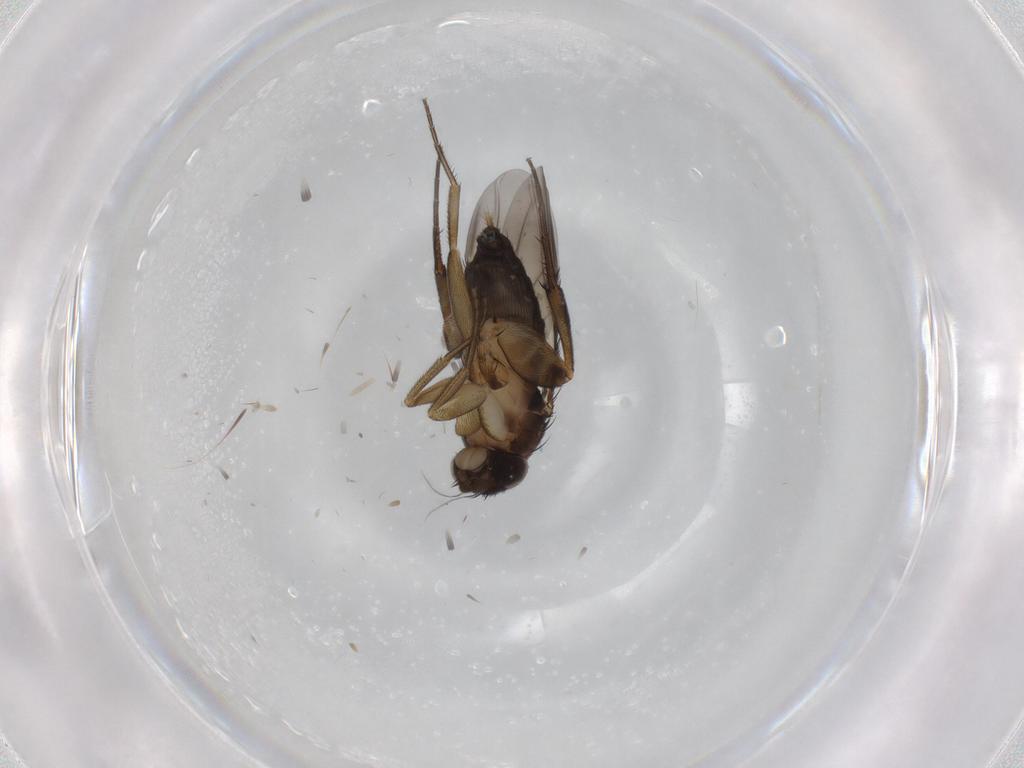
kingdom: Animalia
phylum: Arthropoda
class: Insecta
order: Diptera
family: Phoridae
